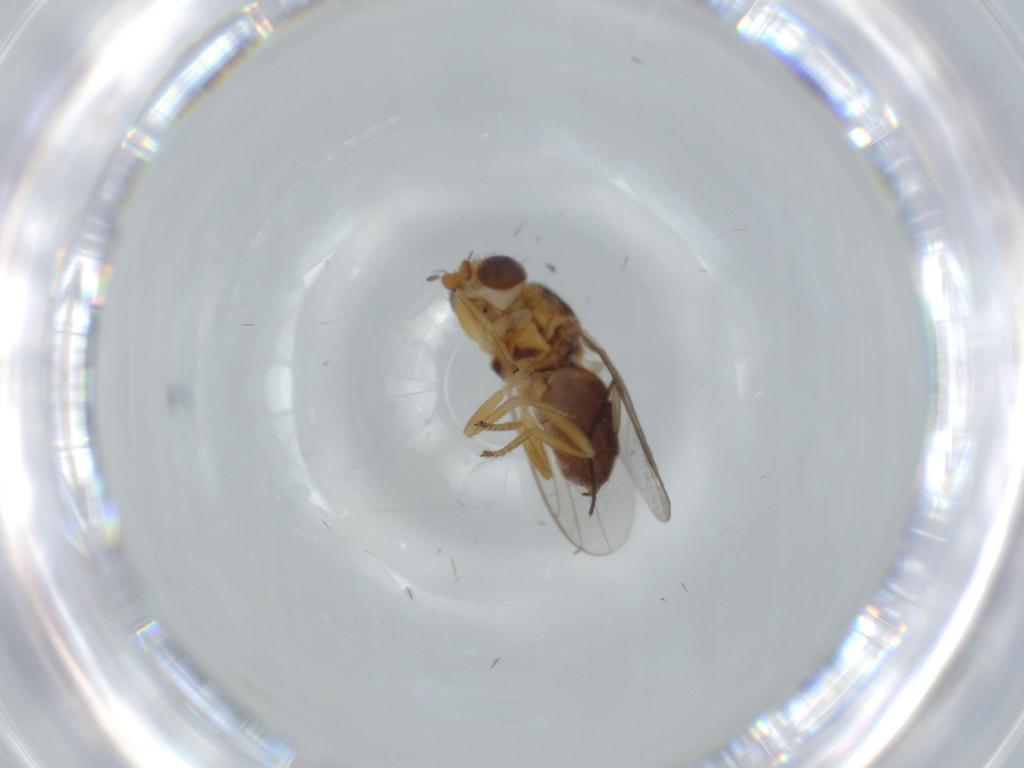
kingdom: Animalia
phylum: Arthropoda
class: Insecta
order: Diptera
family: Chloropidae
